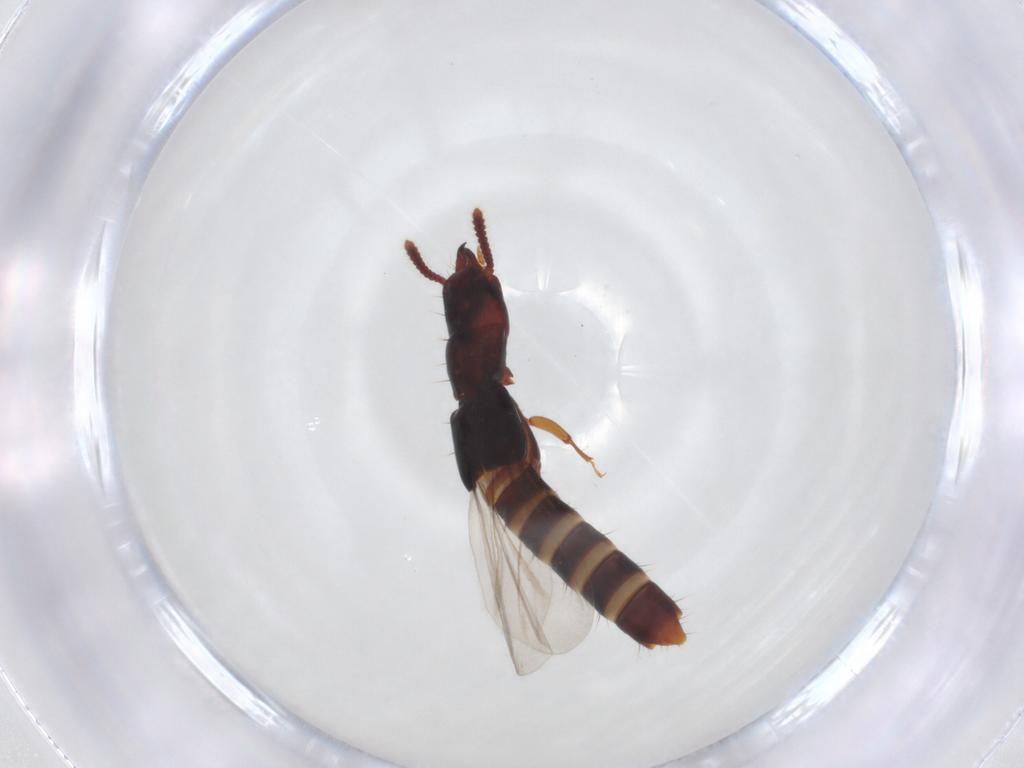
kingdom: Animalia
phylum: Arthropoda
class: Insecta
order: Coleoptera
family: Staphylinidae
